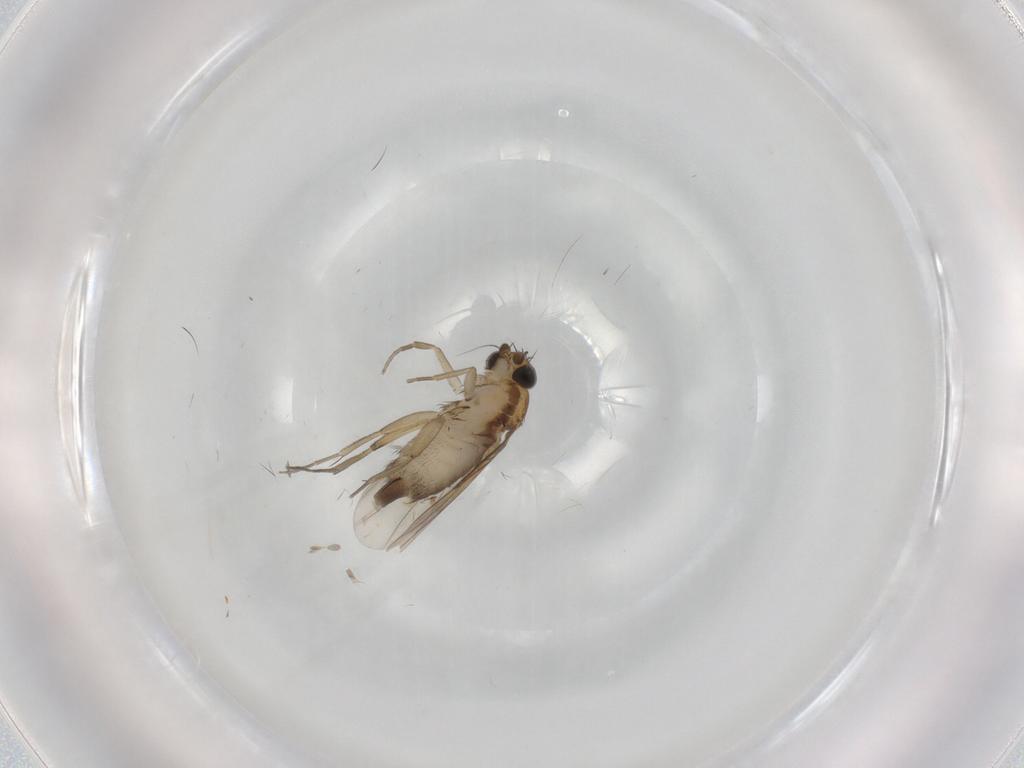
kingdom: Animalia
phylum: Arthropoda
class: Insecta
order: Diptera
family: Phoridae
